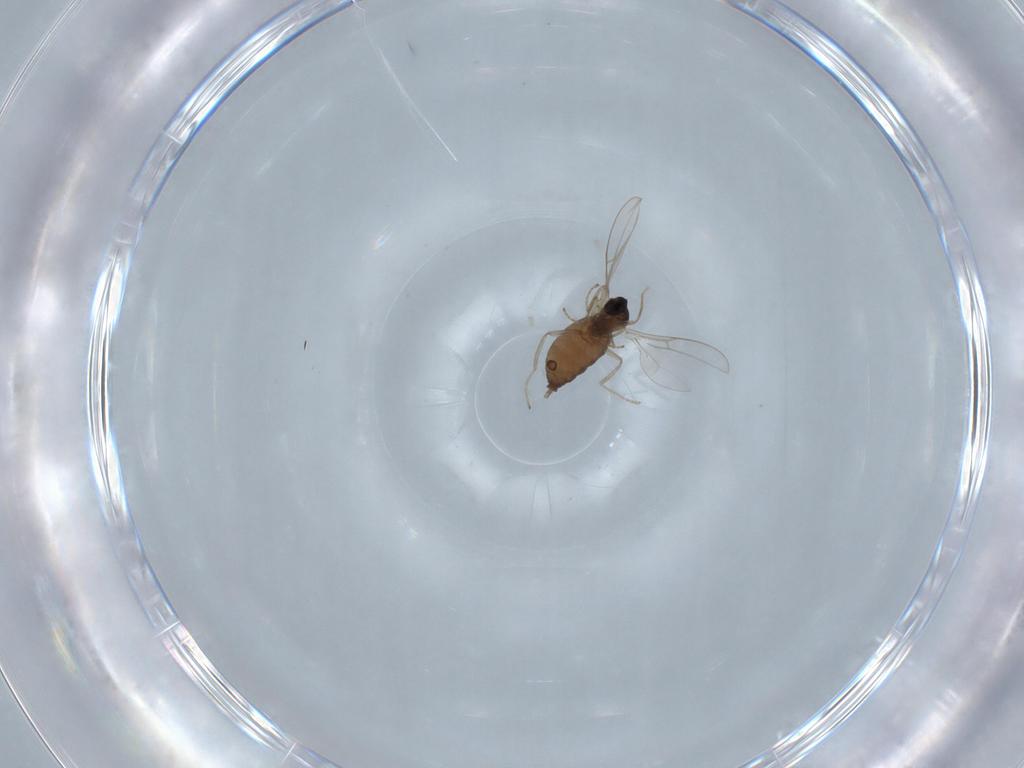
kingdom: Animalia
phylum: Arthropoda
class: Insecta
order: Diptera
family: Cecidomyiidae
